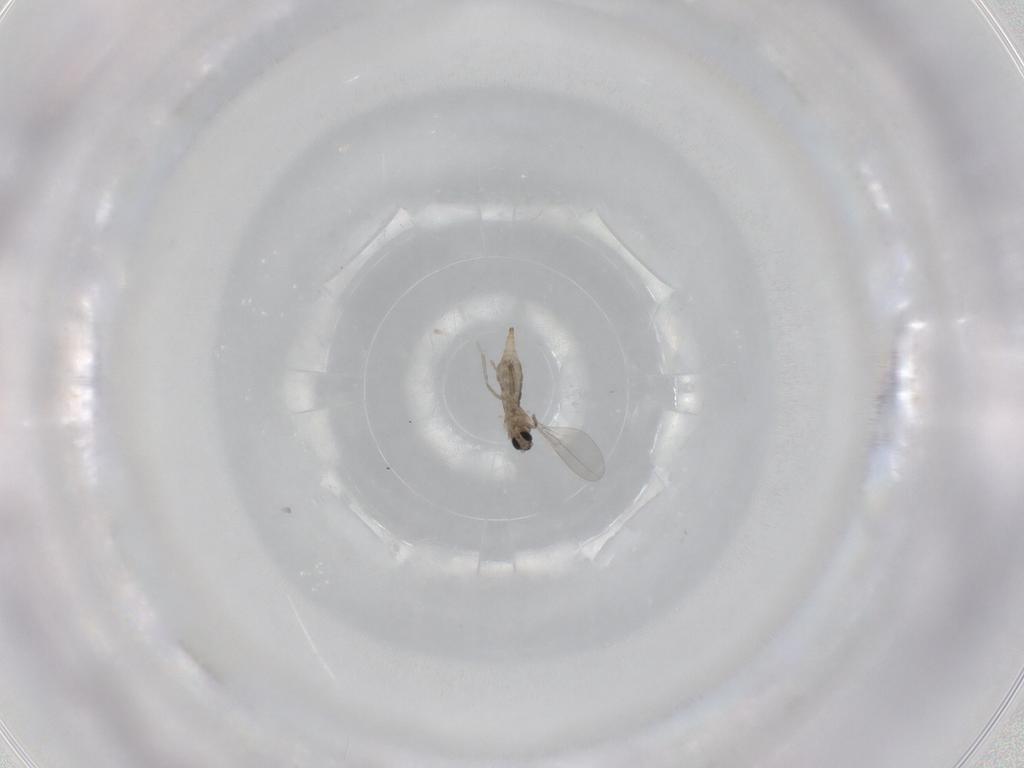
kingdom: Animalia
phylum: Arthropoda
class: Insecta
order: Diptera
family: Cecidomyiidae
